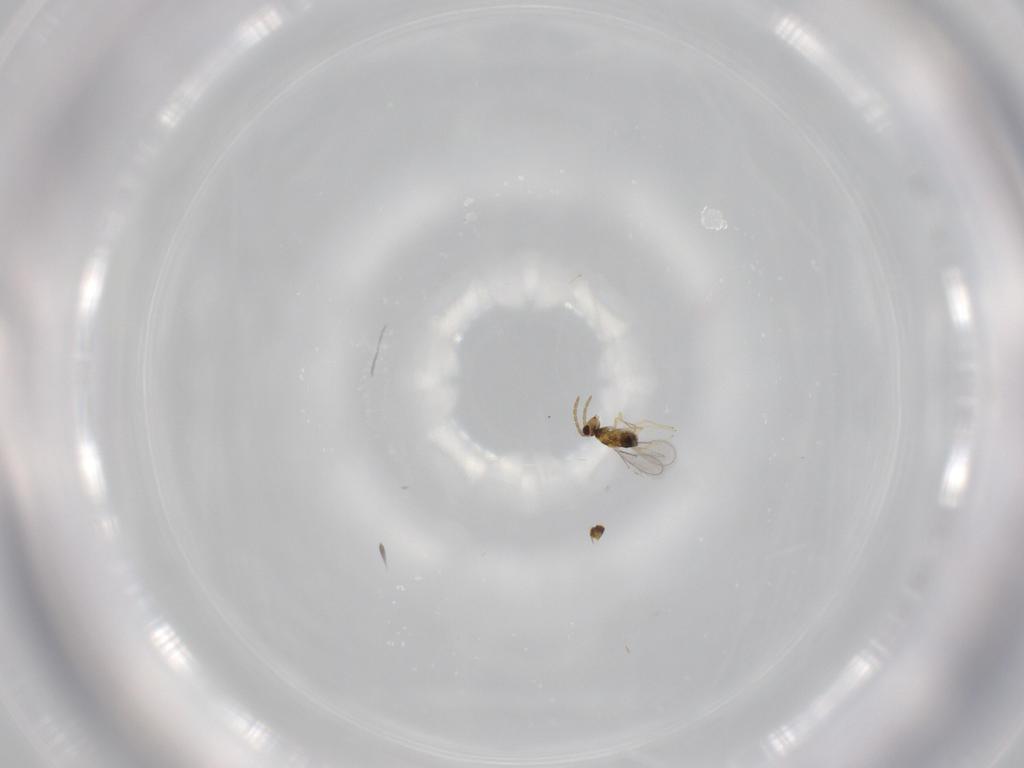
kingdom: Animalia
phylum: Arthropoda
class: Insecta
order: Hymenoptera
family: Aphelinidae
